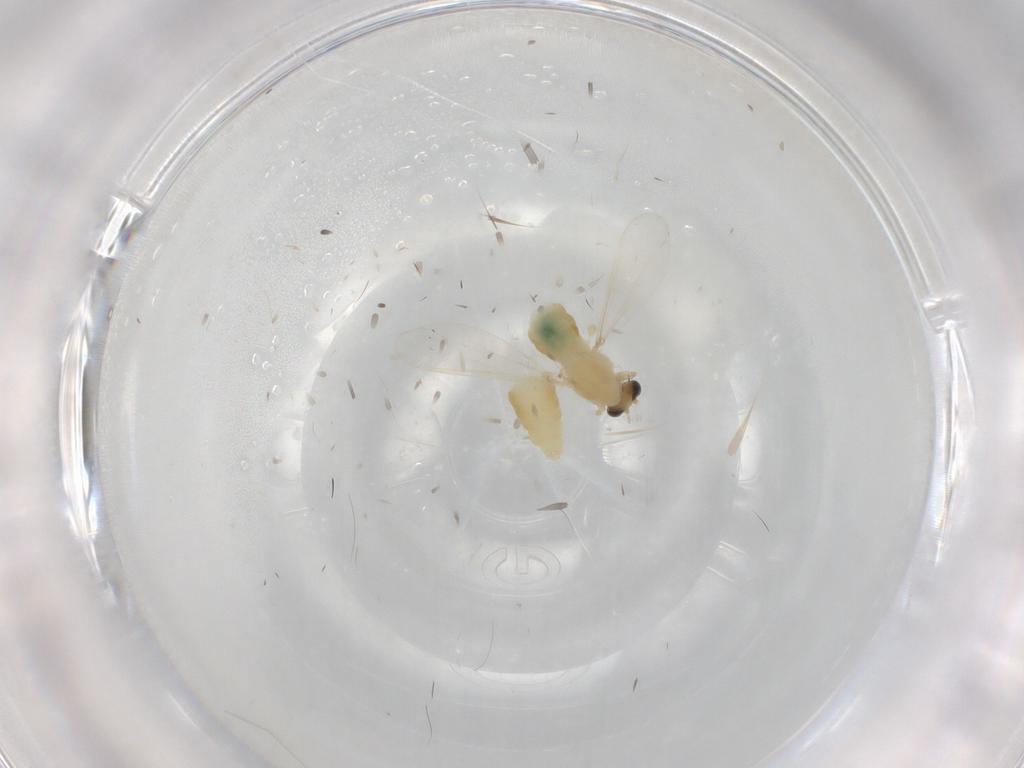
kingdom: Animalia
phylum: Arthropoda
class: Insecta
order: Diptera
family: Chironomidae
